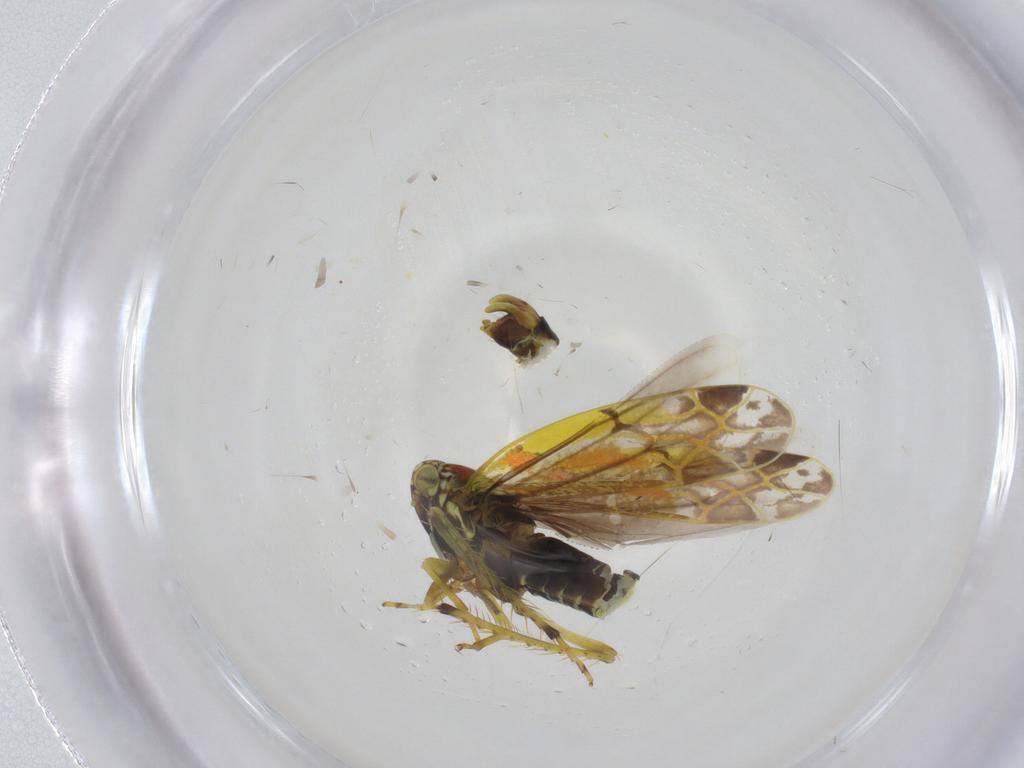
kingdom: Animalia
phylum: Arthropoda
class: Insecta
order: Hemiptera
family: Cicadellidae
